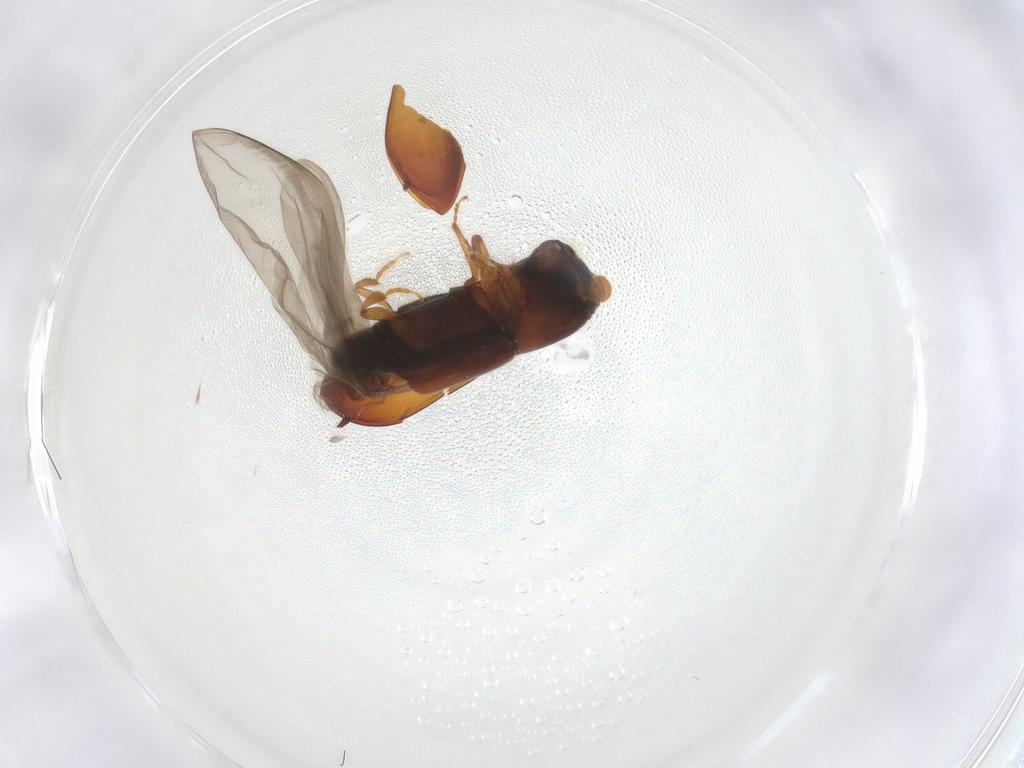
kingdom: Animalia
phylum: Arthropoda
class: Insecta
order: Coleoptera
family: Curculionidae
